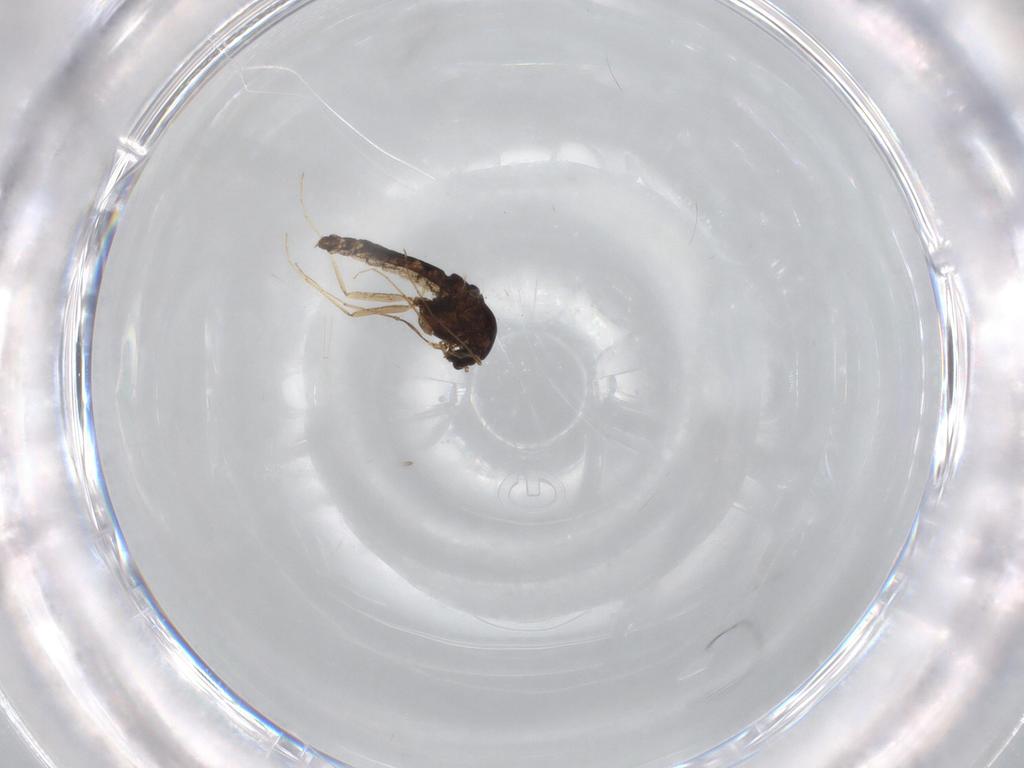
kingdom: Animalia
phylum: Arthropoda
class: Insecta
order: Diptera
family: Chironomidae
